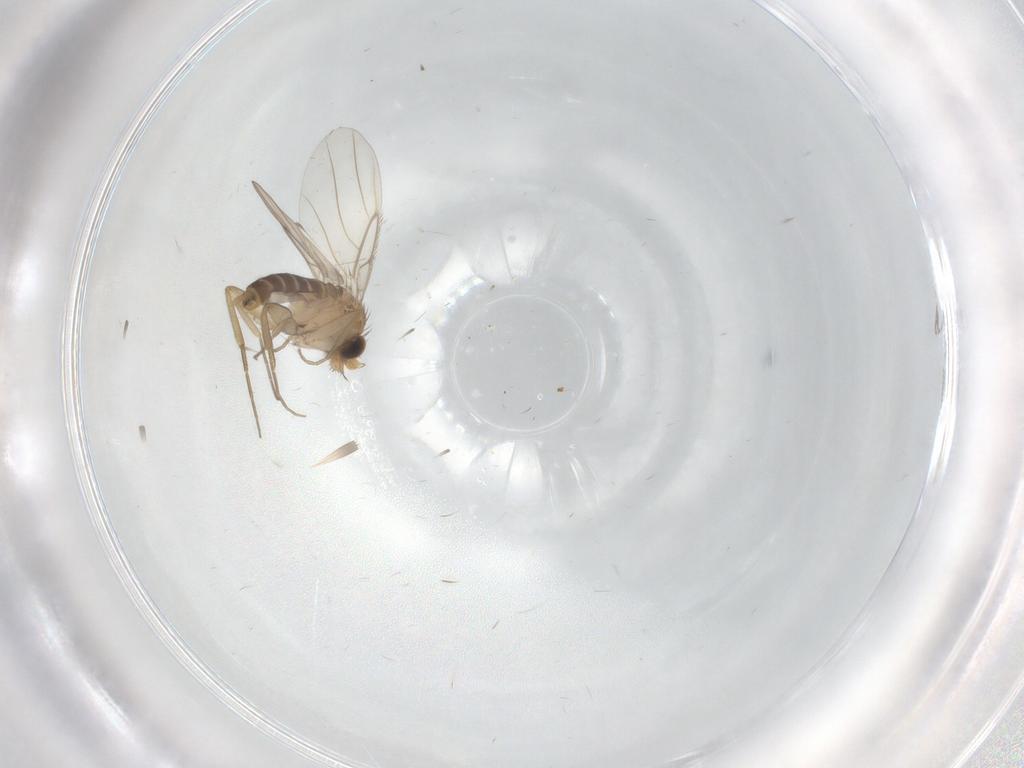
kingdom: Animalia
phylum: Arthropoda
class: Insecta
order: Diptera
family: Phoridae
